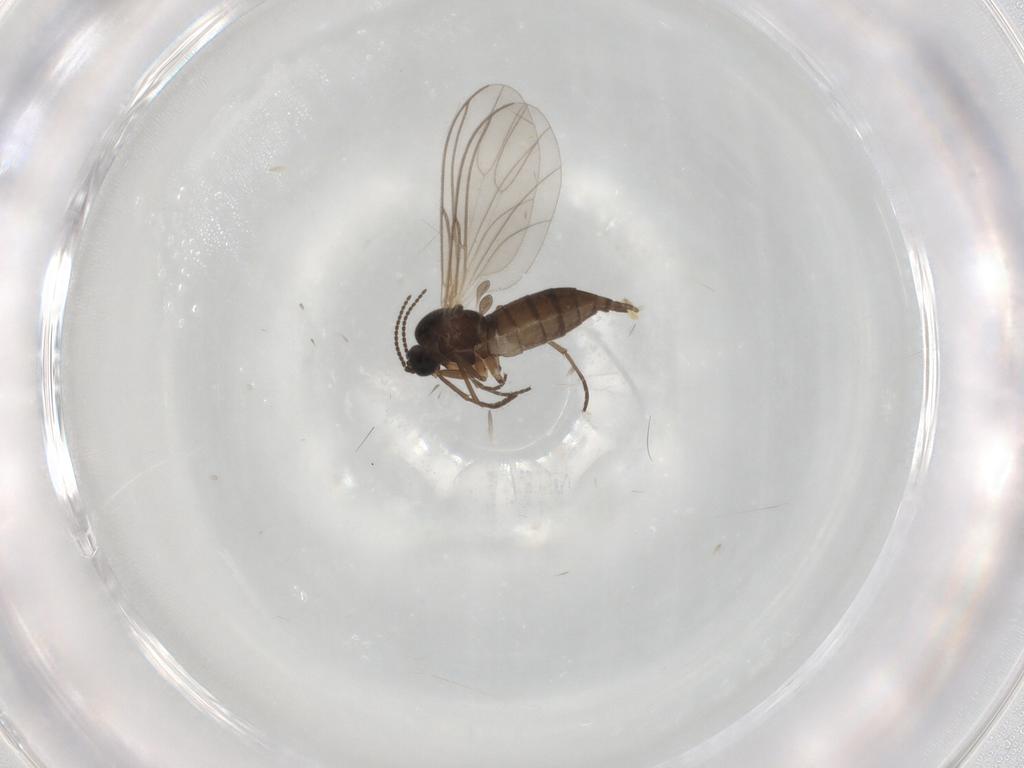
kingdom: Animalia
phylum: Arthropoda
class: Insecta
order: Diptera
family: Sciaridae
